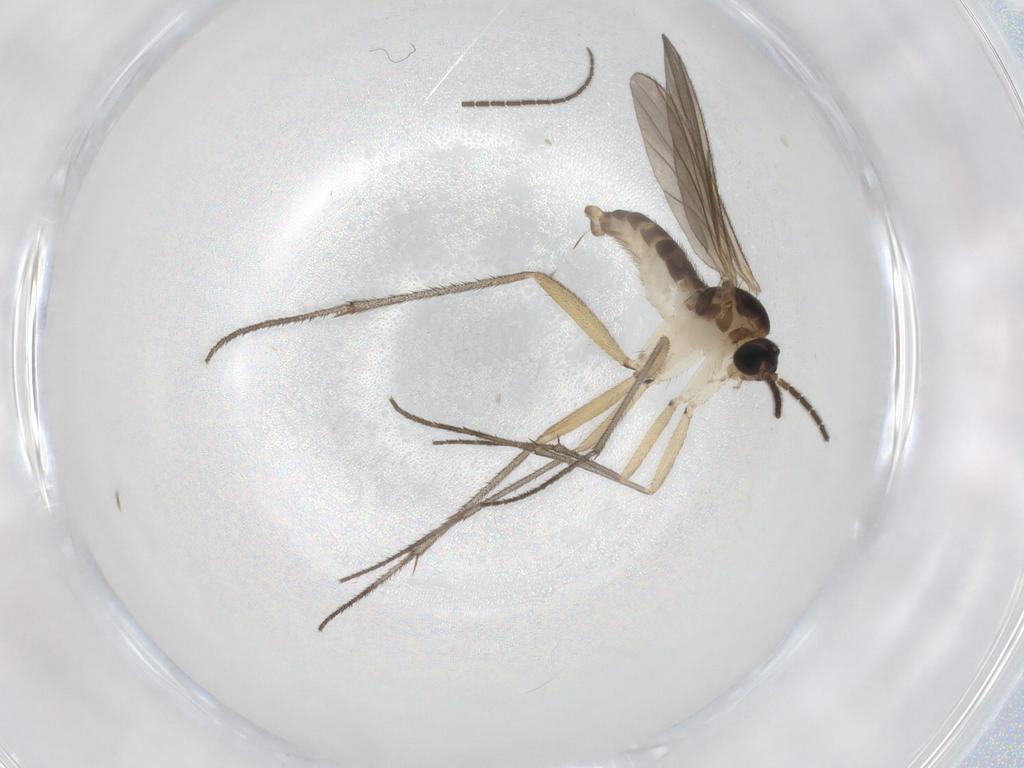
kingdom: Animalia
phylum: Arthropoda
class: Insecta
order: Diptera
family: Sciaridae
